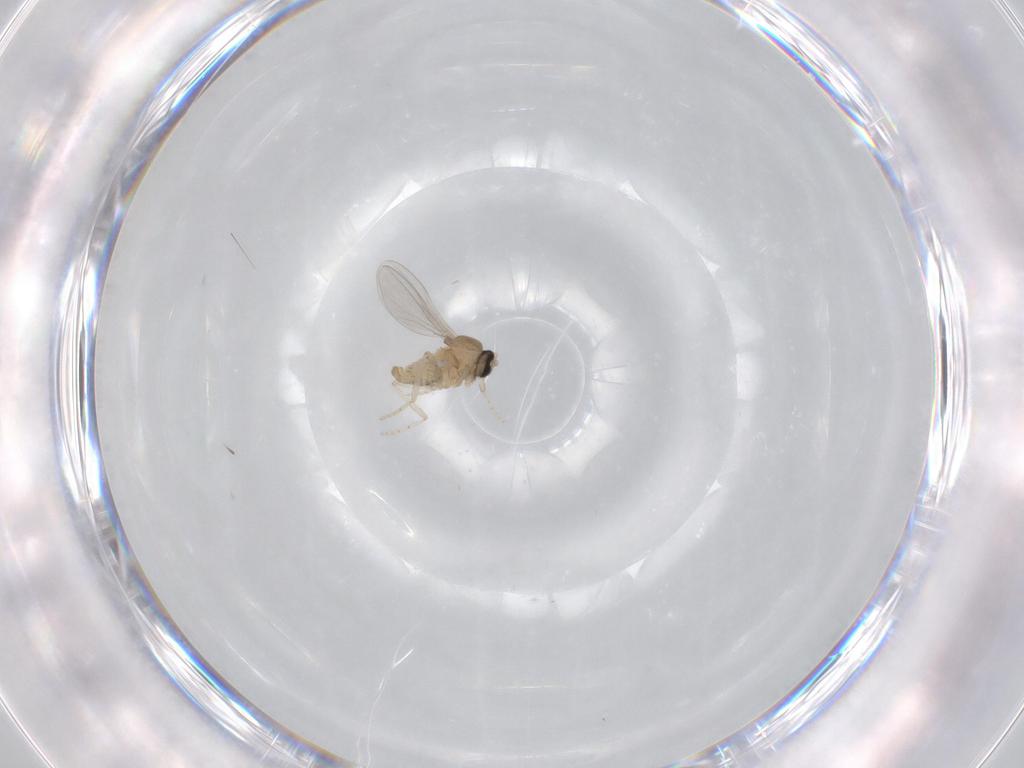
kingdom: Animalia
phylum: Arthropoda
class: Insecta
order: Diptera
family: Cecidomyiidae
